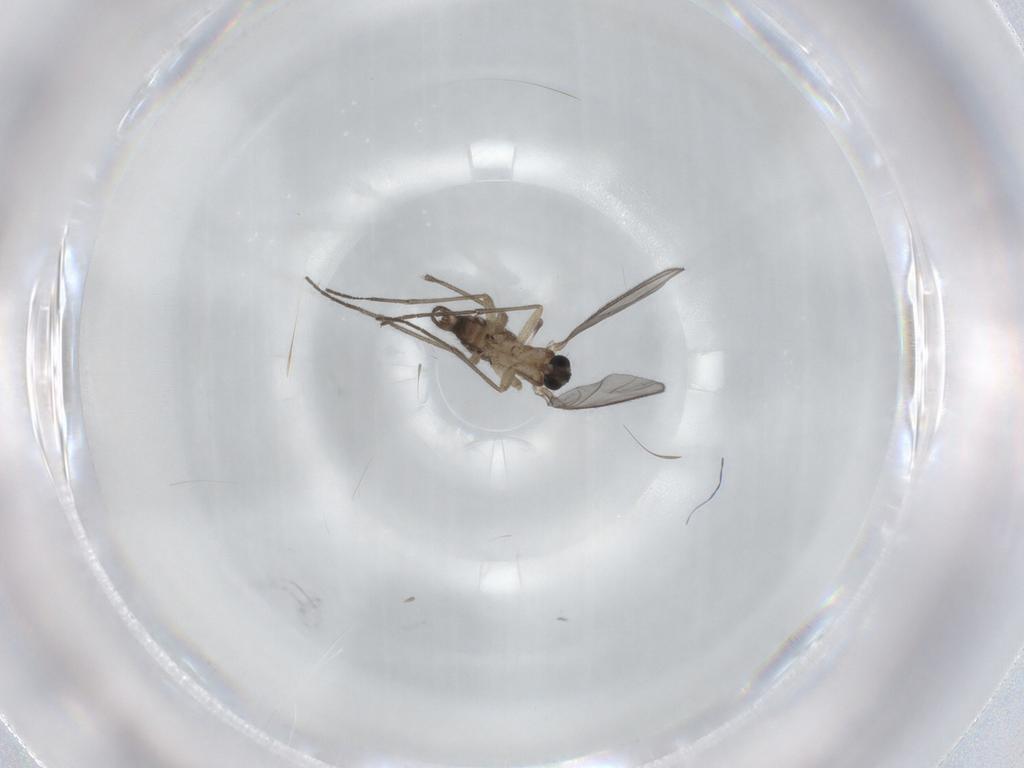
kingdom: Animalia
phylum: Arthropoda
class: Insecta
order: Diptera
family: Sciaridae
